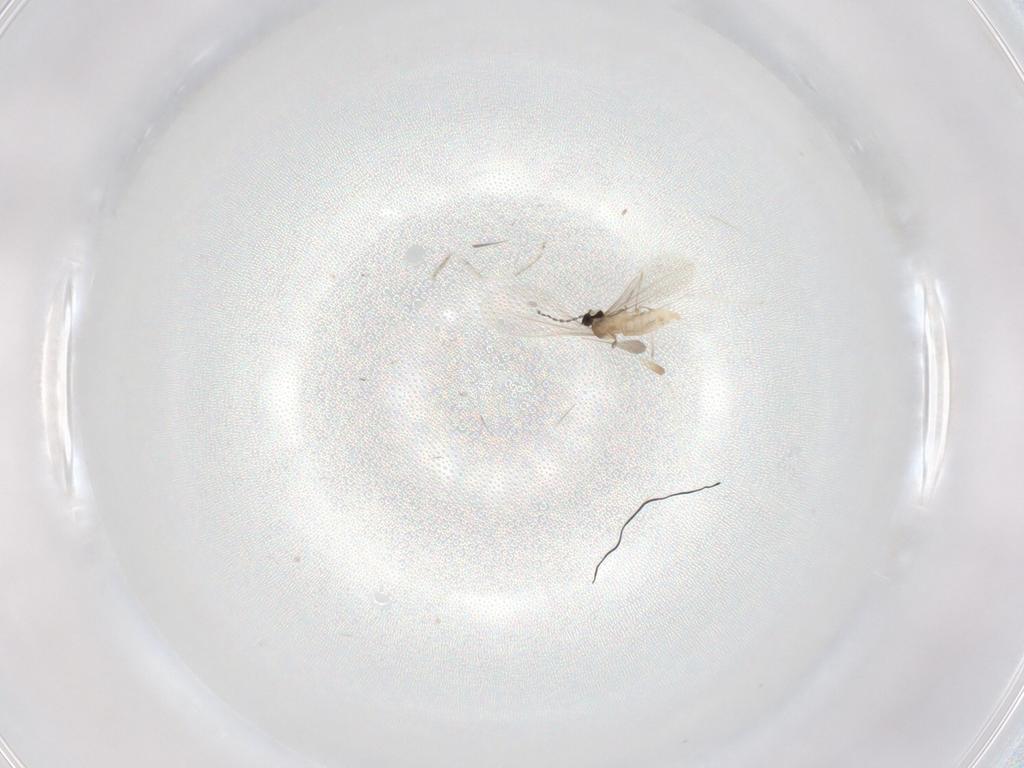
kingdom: Animalia
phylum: Arthropoda
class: Insecta
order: Diptera
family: Cecidomyiidae
